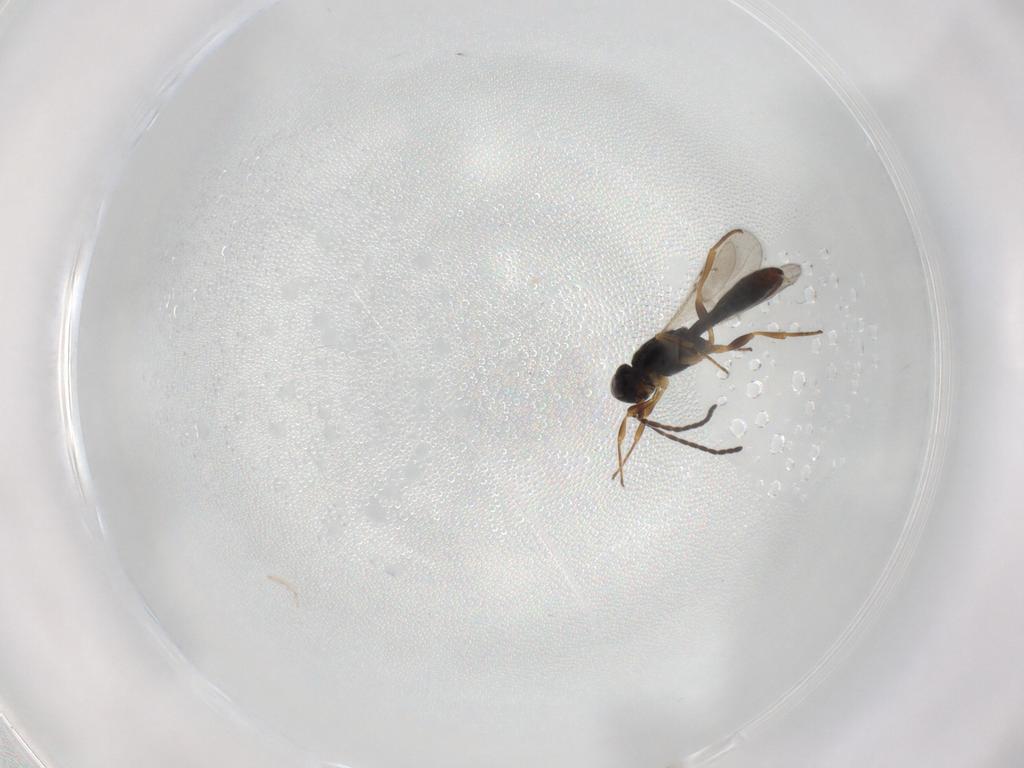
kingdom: Animalia
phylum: Arthropoda
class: Insecta
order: Hymenoptera
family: Scelionidae
